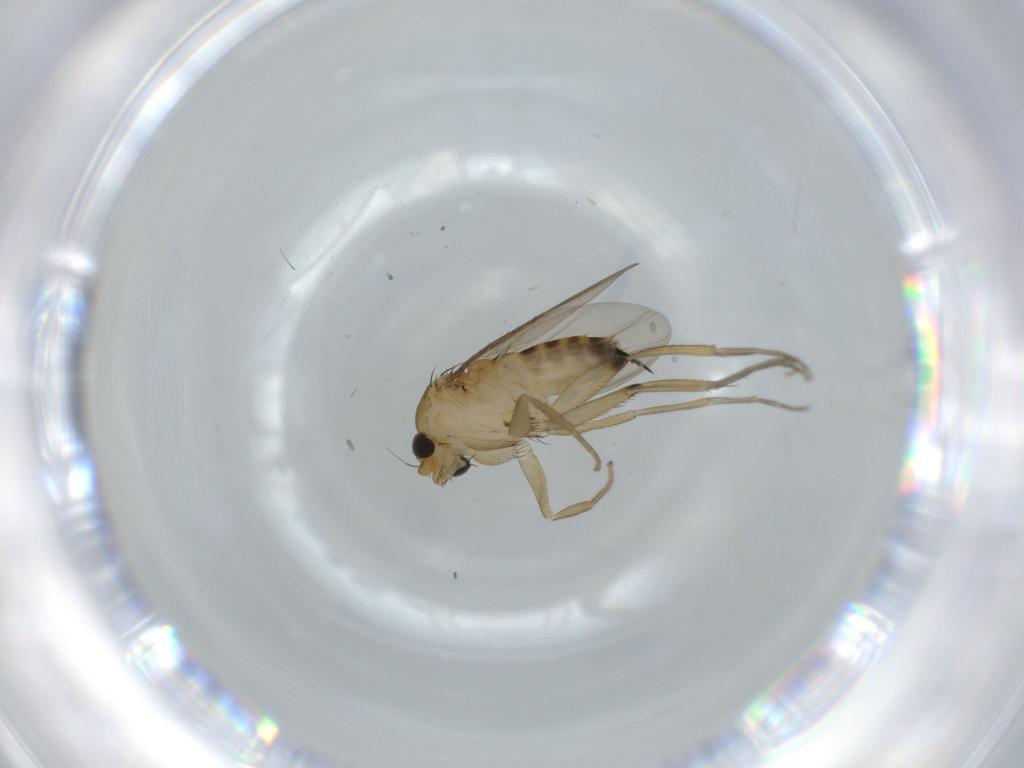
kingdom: Animalia
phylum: Arthropoda
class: Insecta
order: Diptera
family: Phoridae
